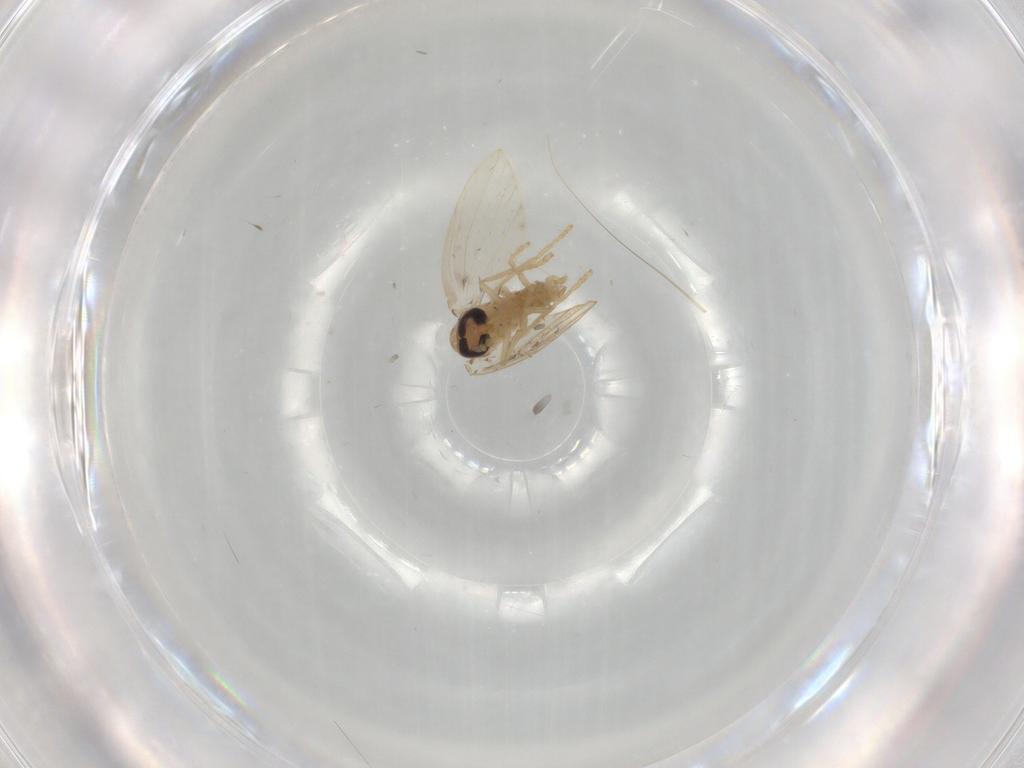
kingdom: Animalia
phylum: Arthropoda
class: Insecta
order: Diptera
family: Psychodidae
